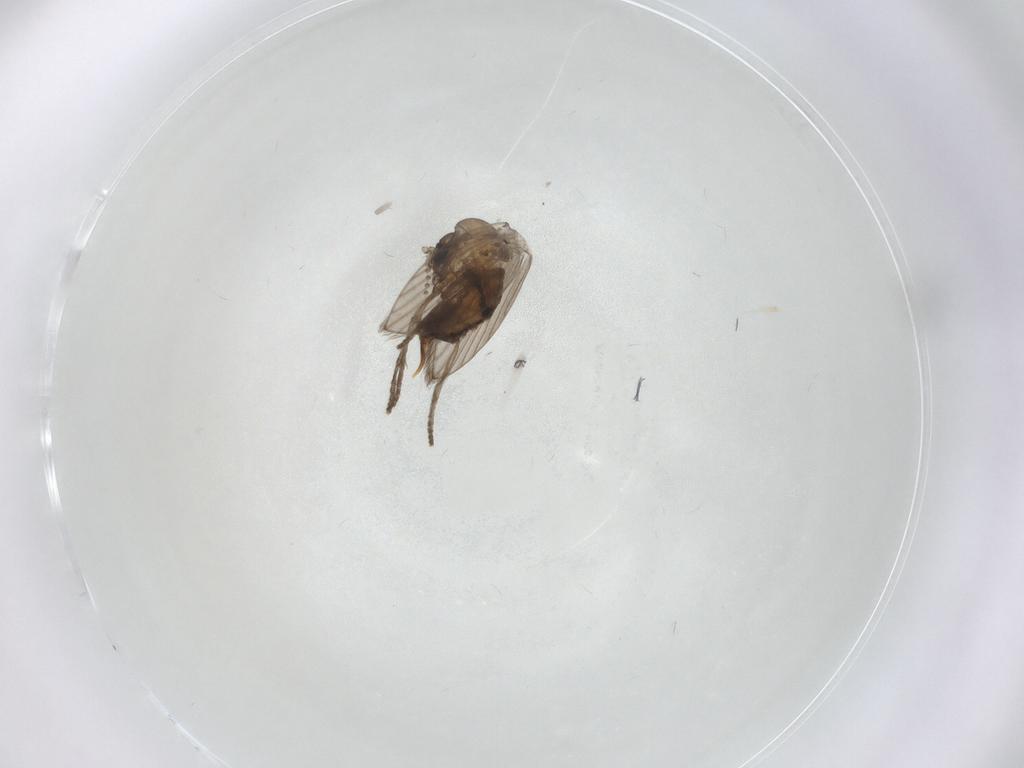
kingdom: Animalia
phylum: Arthropoda
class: Insecta
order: Diptera
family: Sciaridae
